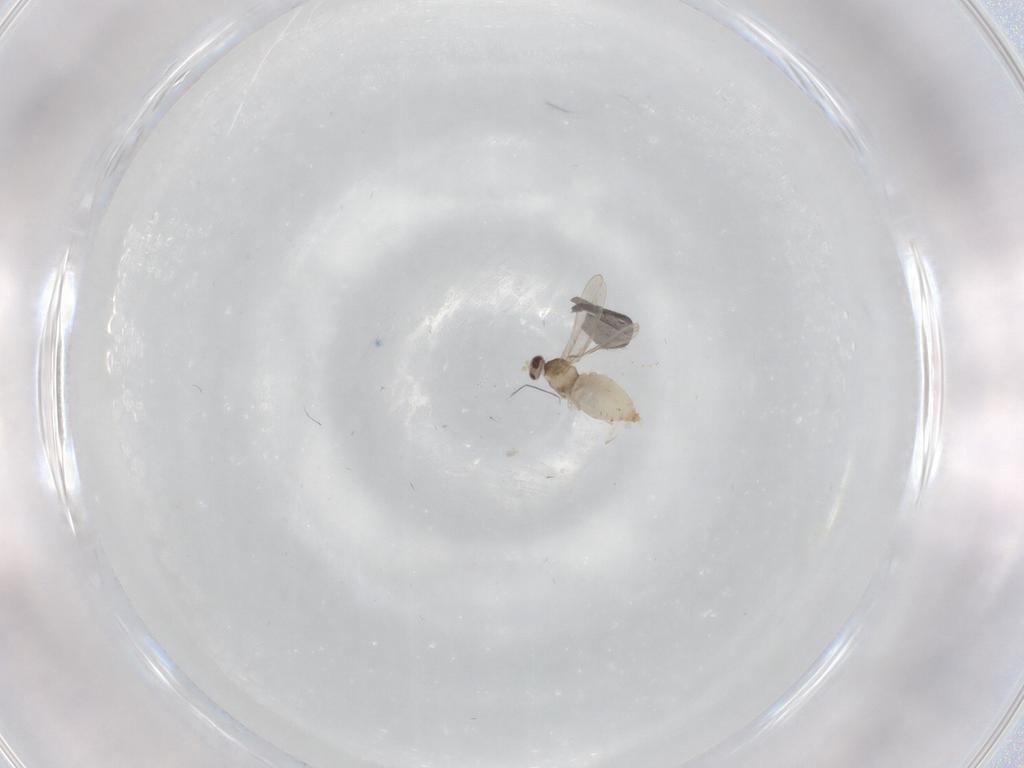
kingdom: Animalia
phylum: Arthropoda
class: Insecta
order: Diptera
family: Cecidomyiidae
